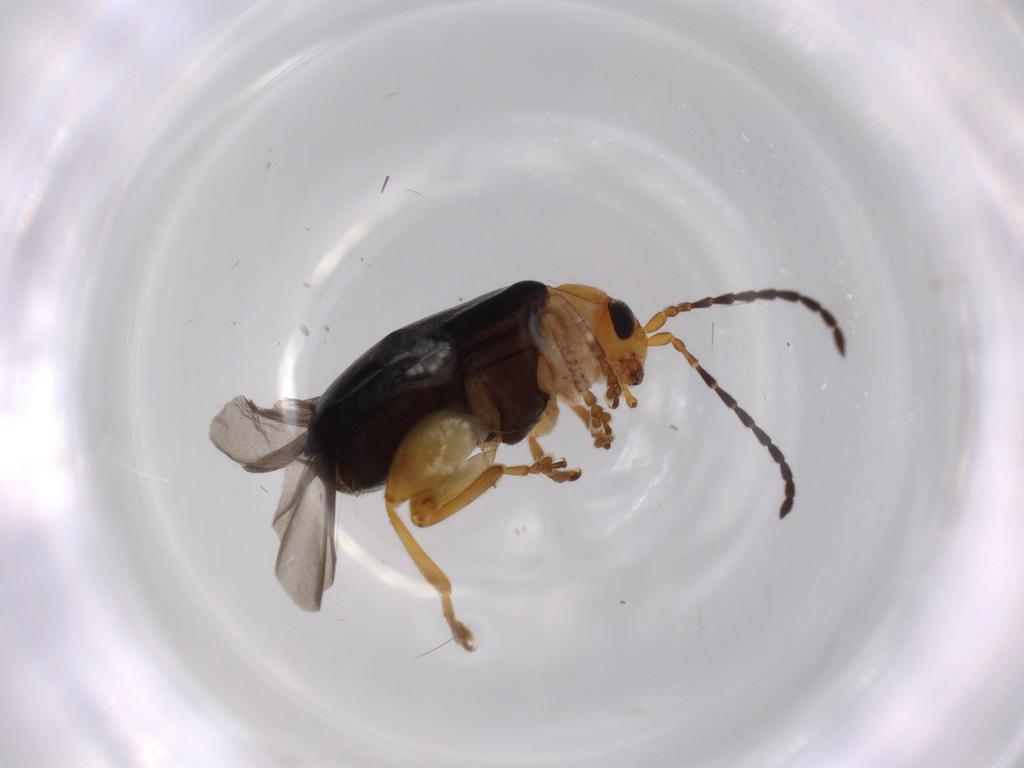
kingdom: Animalia
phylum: Arthropoda
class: Insecta
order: Coleoptera
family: Chrysomelidae
